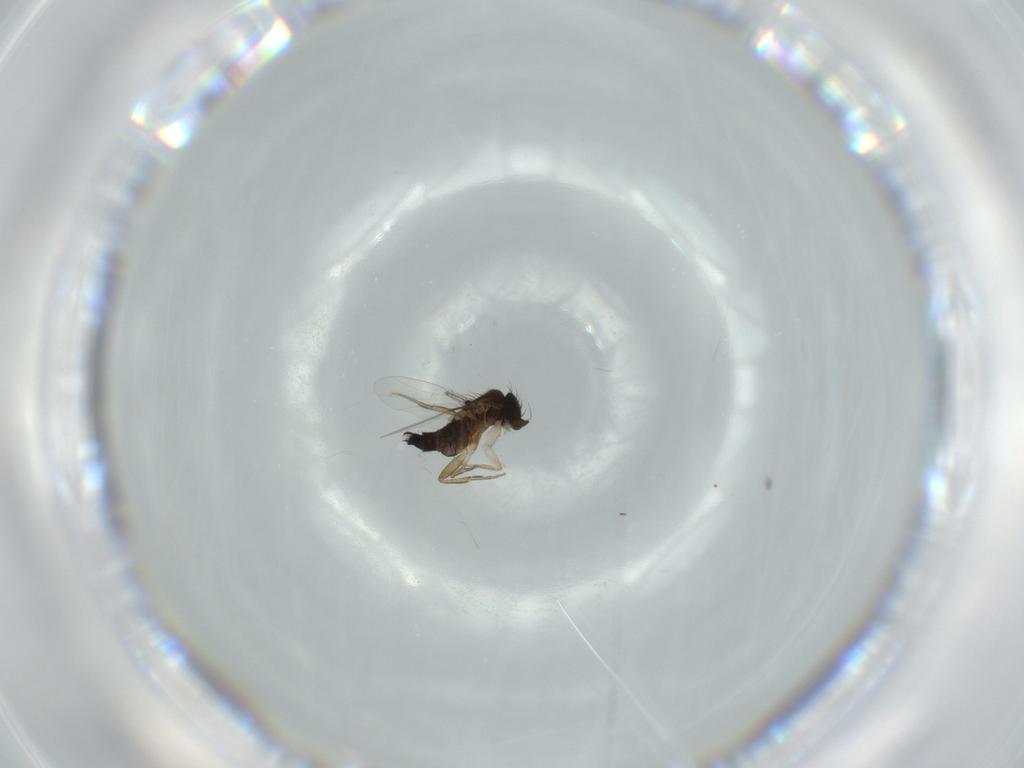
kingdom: Animalia
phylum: Arthropoda
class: Insecta
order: Diptera
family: Phoridae
